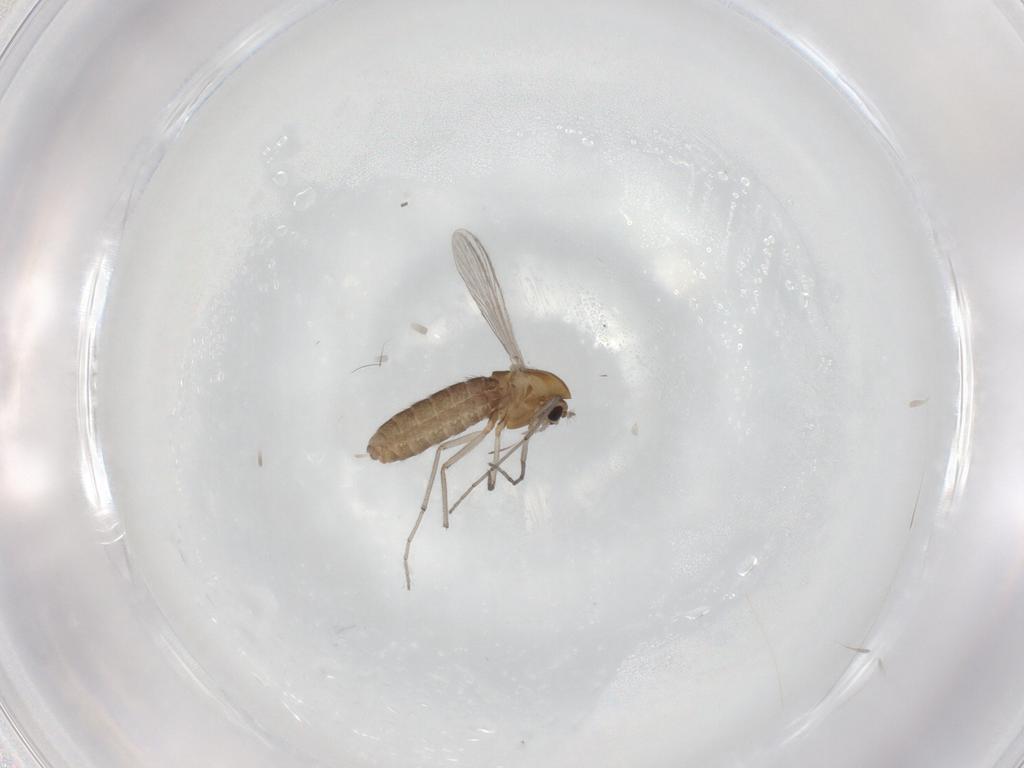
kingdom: Animalia
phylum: Arthropoda
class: Insecta
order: Diptera
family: Chironomidae
